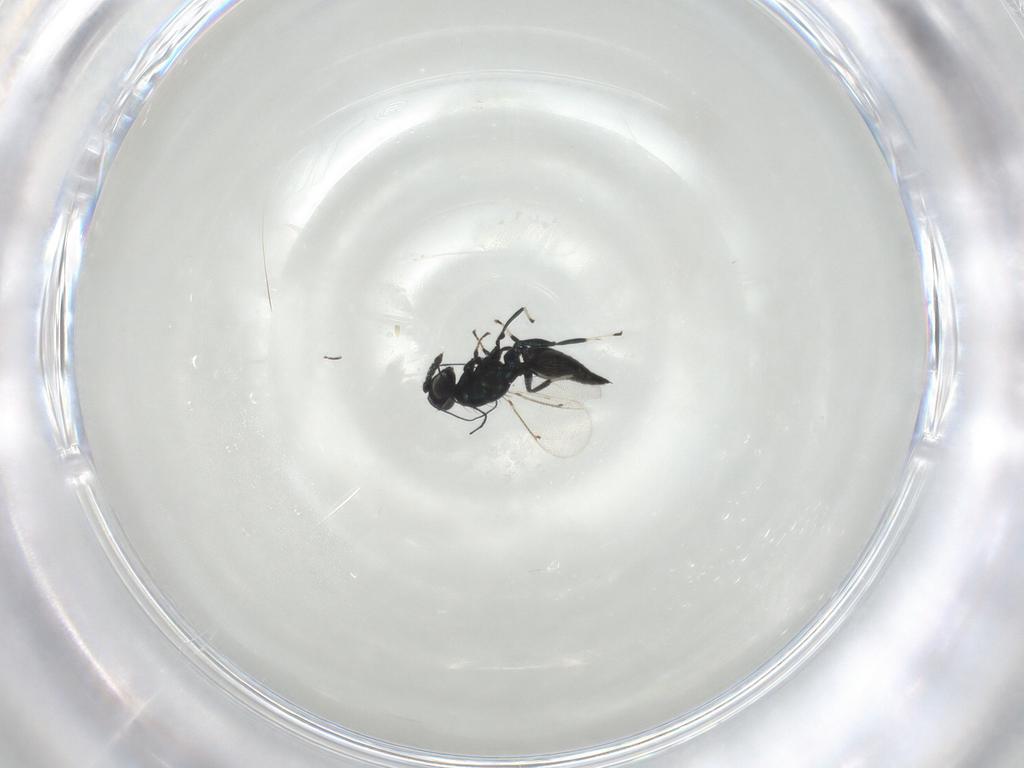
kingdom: Animalia
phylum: Arthropoda
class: Insecta
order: Hymenoptera
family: Mymaridae
